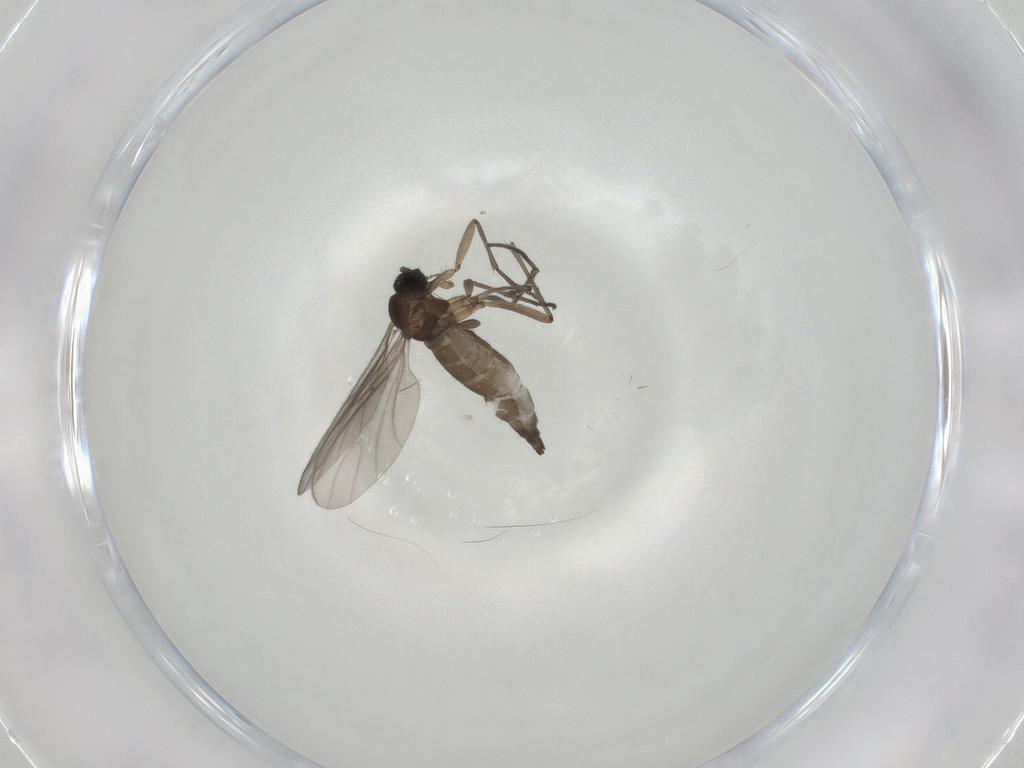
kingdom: Animalia
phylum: Arthropoda
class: Insecta
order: Diptera
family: Sciaridae
